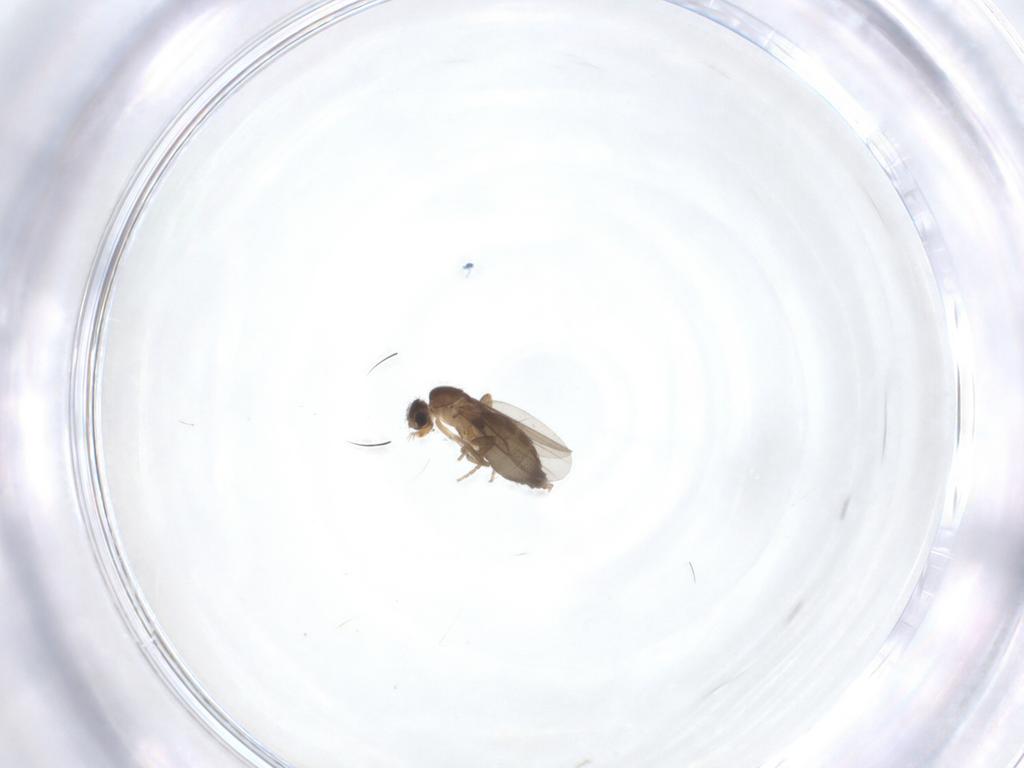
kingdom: Animalia
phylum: Arthropoda
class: Insecta
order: Diptera
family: Phoridae
